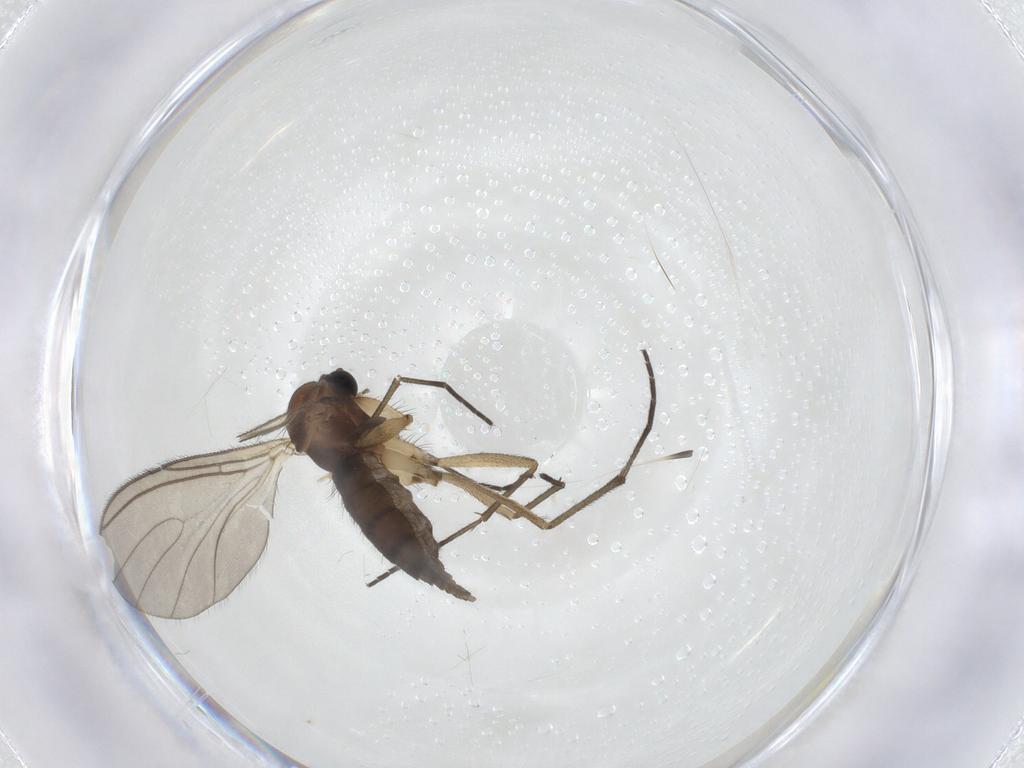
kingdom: Animalia
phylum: Arthropoda
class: Insecta
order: Diptera
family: Sciaridae
